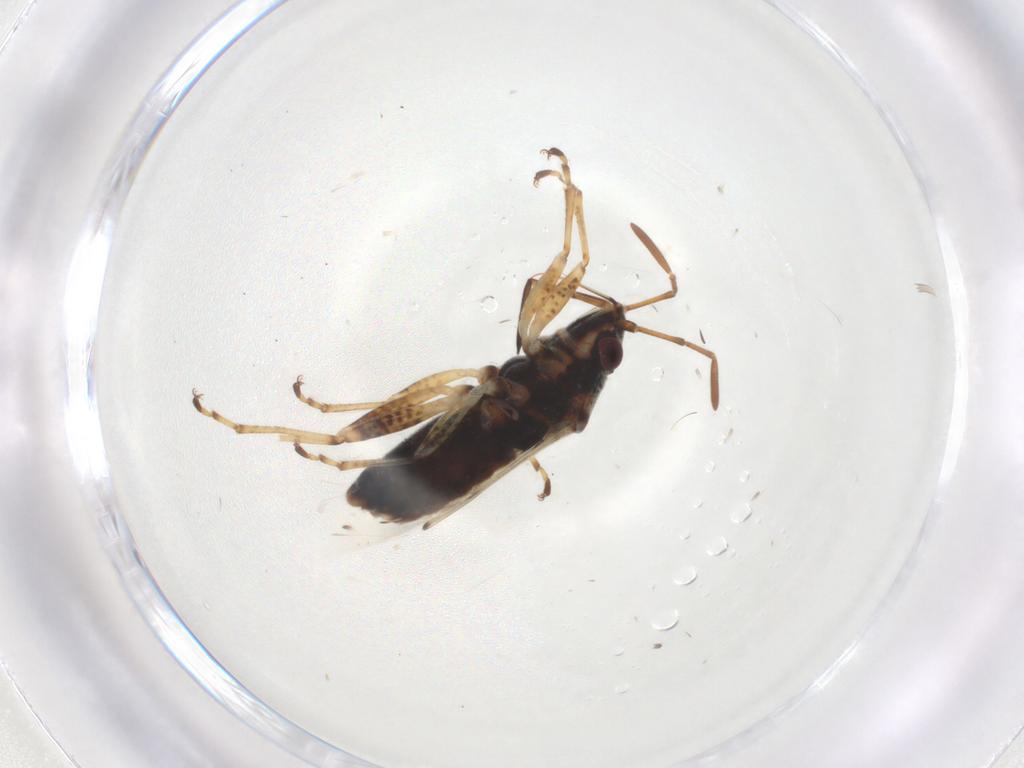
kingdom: Animalia
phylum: Arthropoda
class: Insecta
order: Hemiptera
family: Lygaeidae
